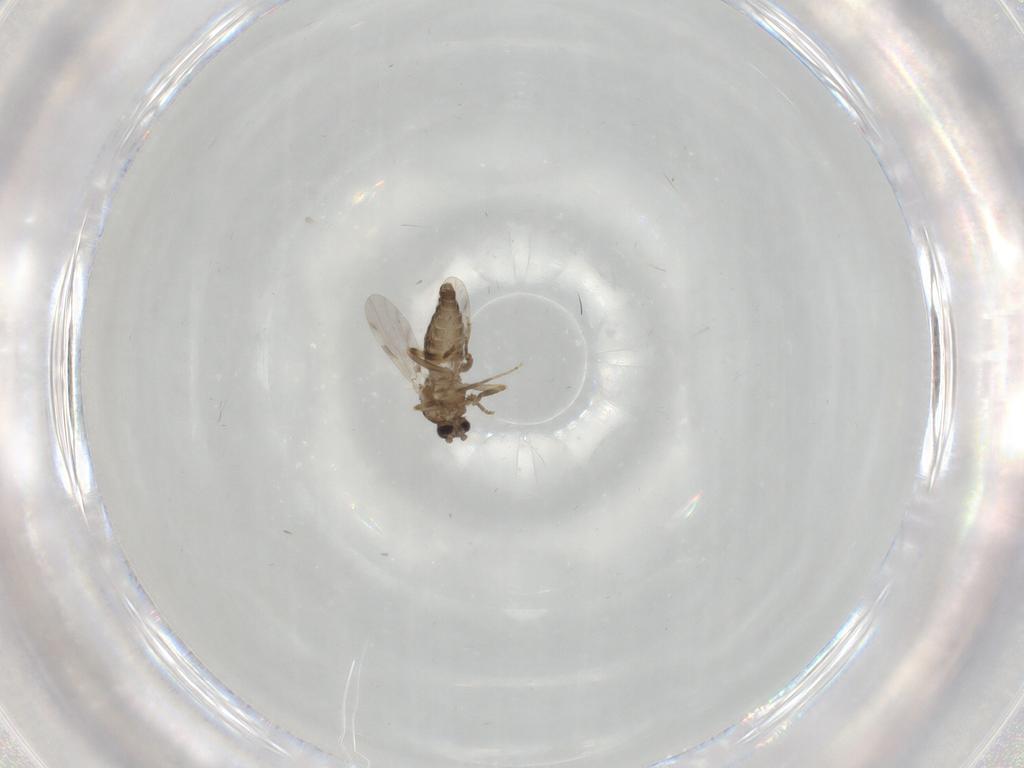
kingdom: Animalia
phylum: Arthropoda
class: Insecta
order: Diptera
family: Ceratopogonidae
